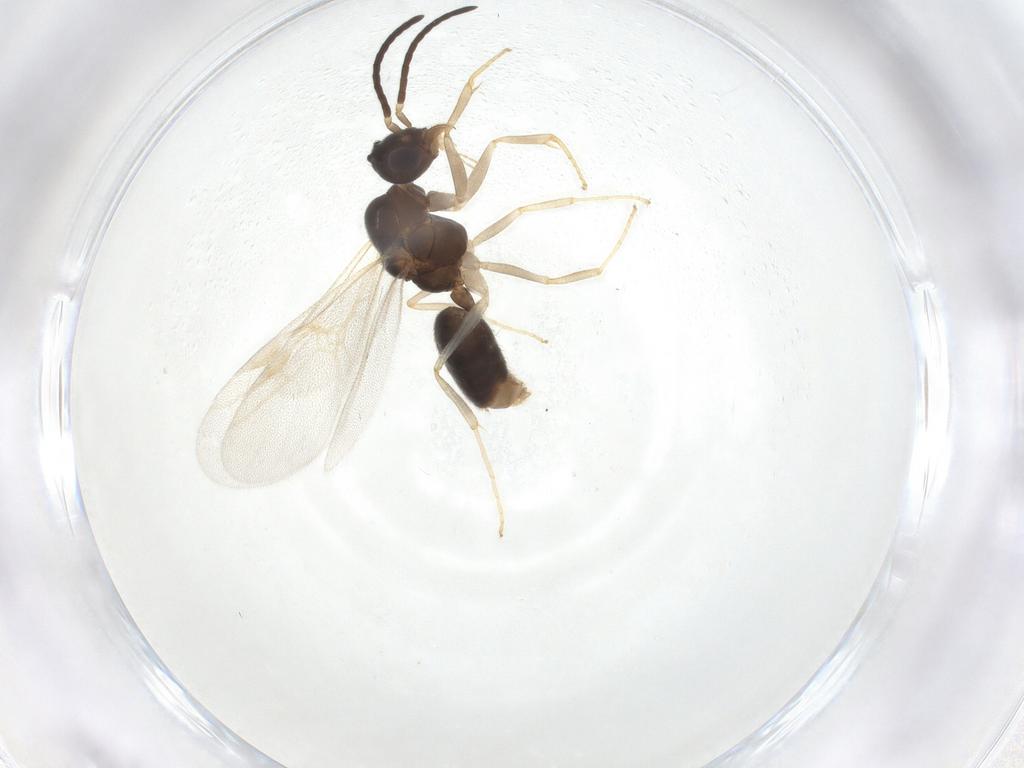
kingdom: Animalia
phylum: Arthropoda
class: Insecta
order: Hymenoptera
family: Formicidae
